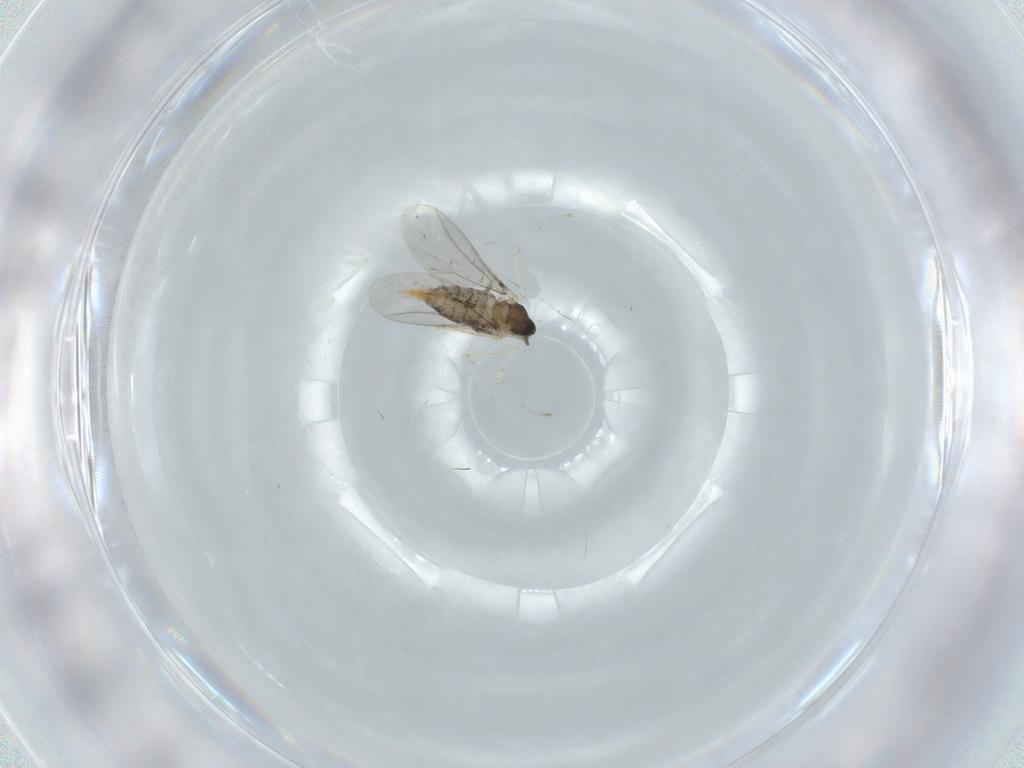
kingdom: Animalia
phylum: Arthropoda
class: Insecta
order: Diptera
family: Cecidomyiidae
